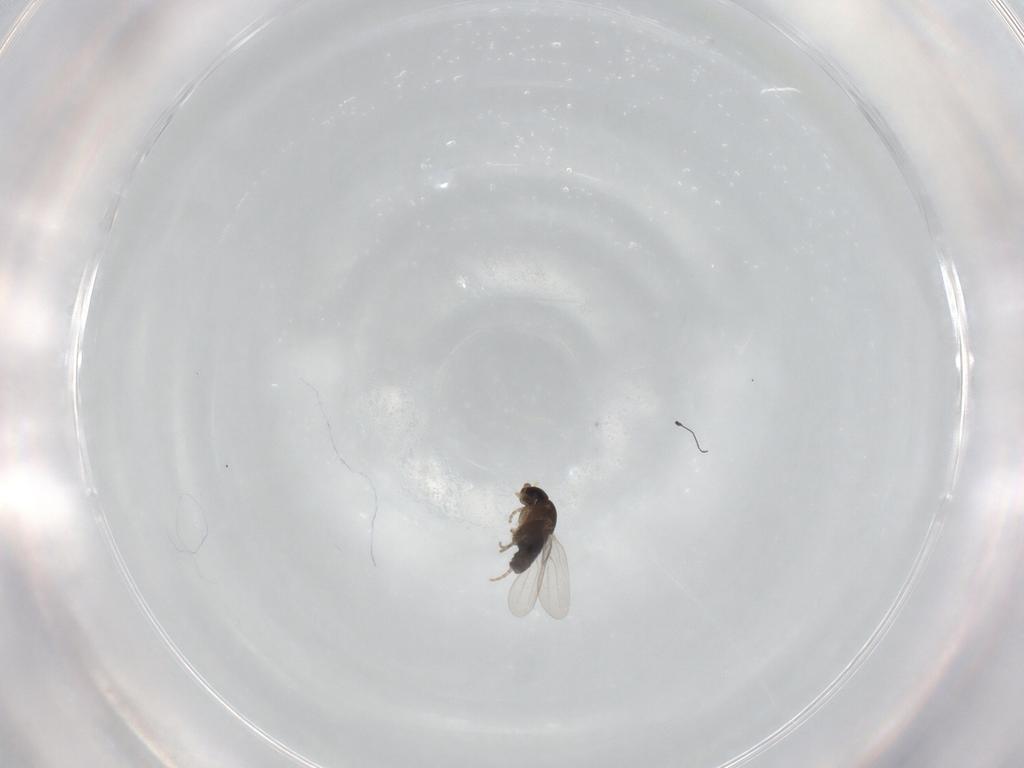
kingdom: Animalia
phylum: Arthropoda
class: Insecta
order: Diptera
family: Phoridae
